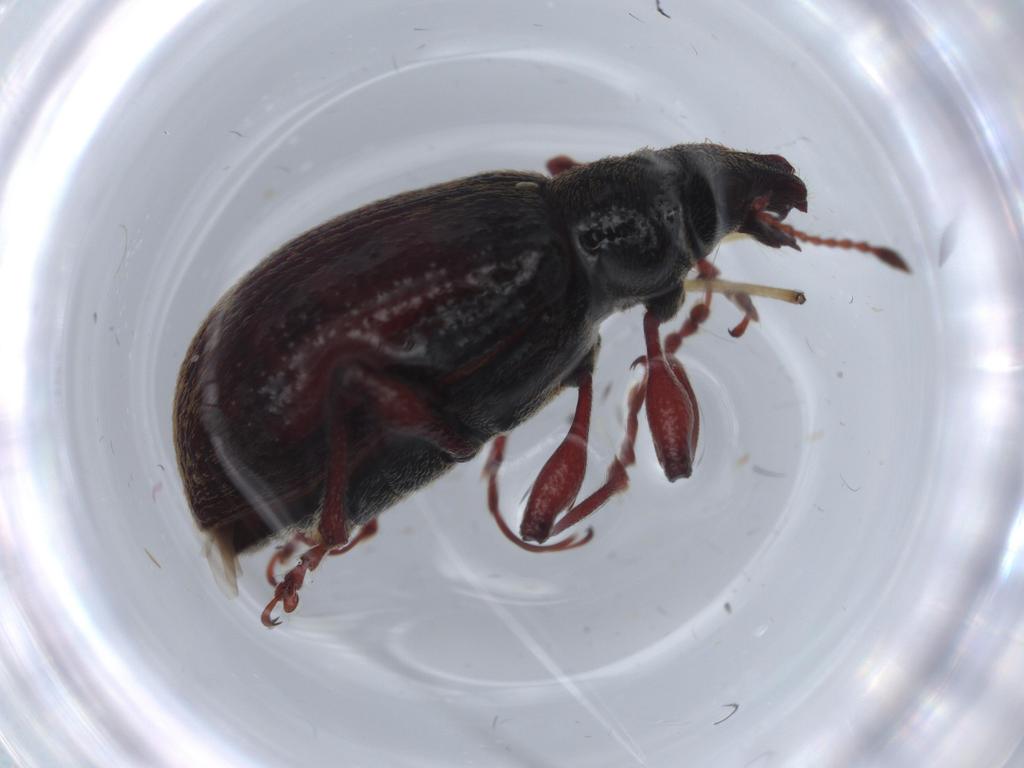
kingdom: Animalia
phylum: Arthropoda
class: Insecta
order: Coleoptera
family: Curculionidae
